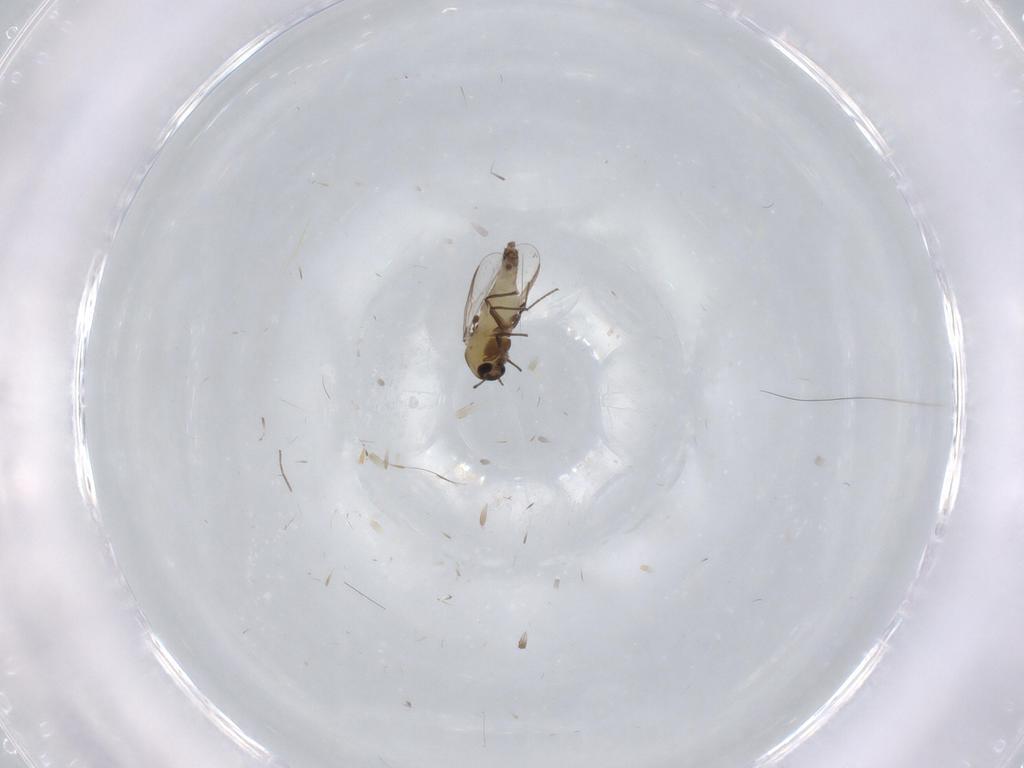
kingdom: Animalia
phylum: Arthropoda
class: Insecta
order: Diptera
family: Chironomidae
